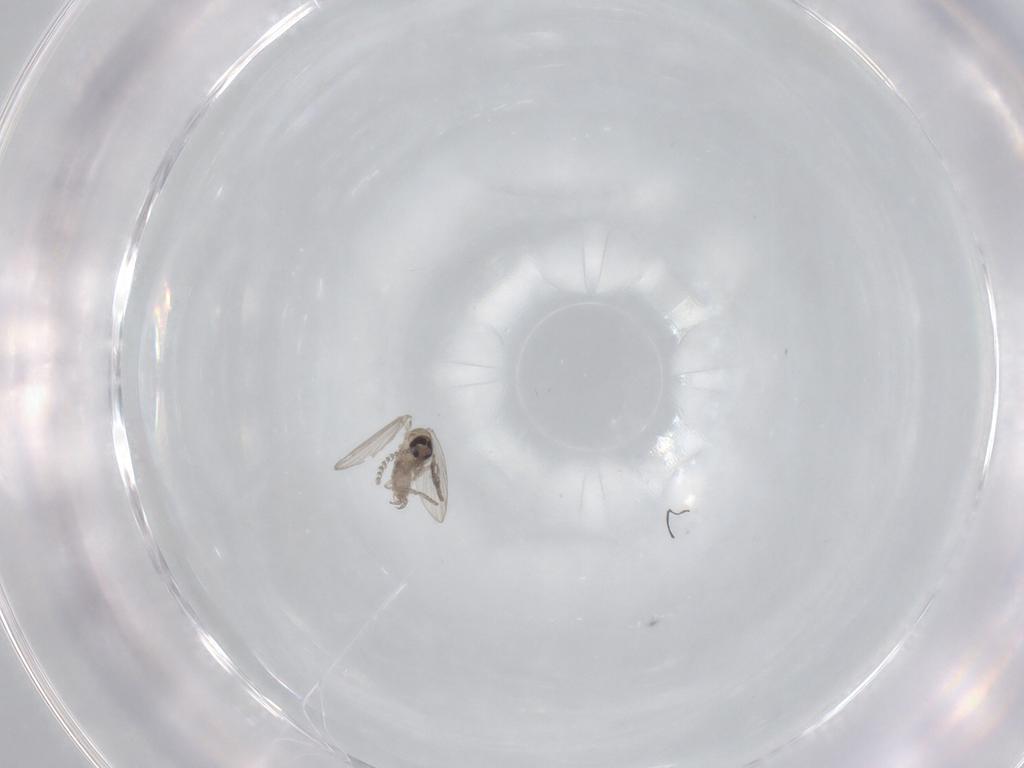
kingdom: Animalia
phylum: Arthropoda
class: Insecta
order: Diptera
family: Psychodidae
